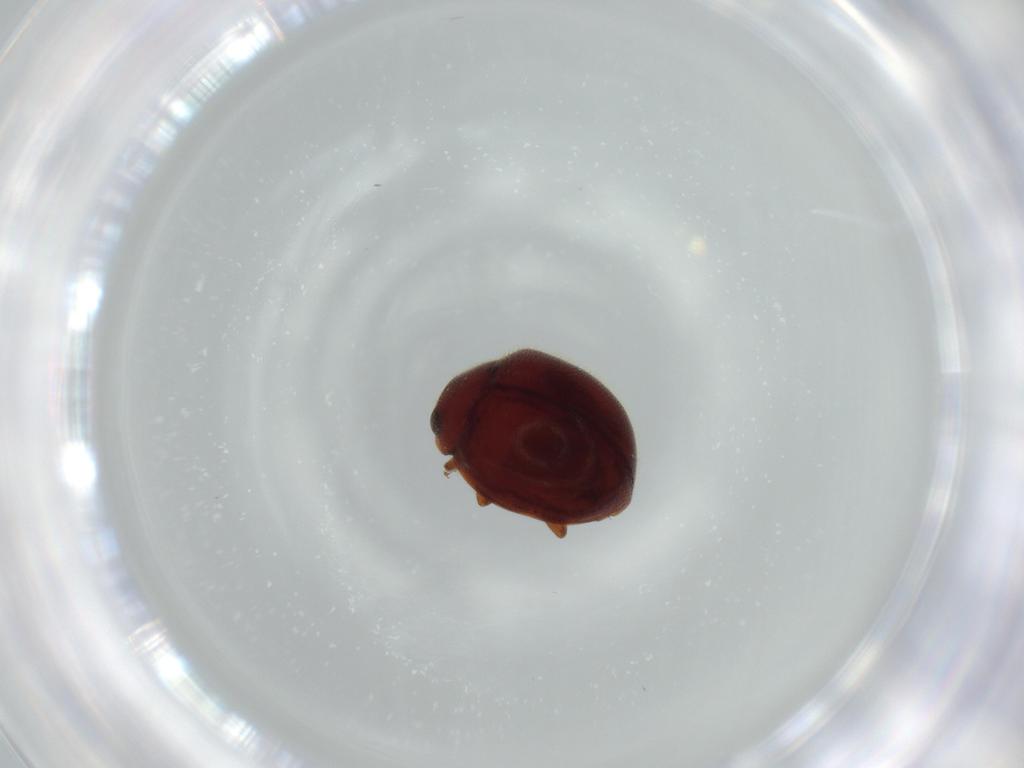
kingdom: Animalia
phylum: Arthropoda
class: Insecta
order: Coleoptera
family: Coccinellidae
